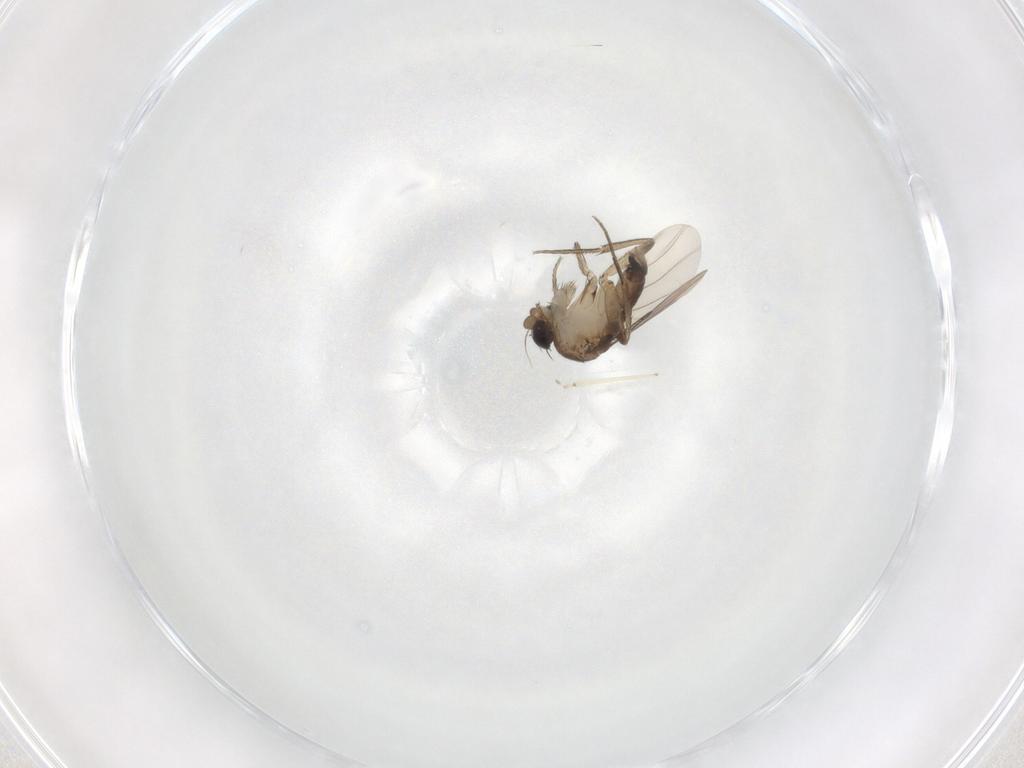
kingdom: Animalia
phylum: Arthropoda
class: Insecta
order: Diptera
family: Phoridae
